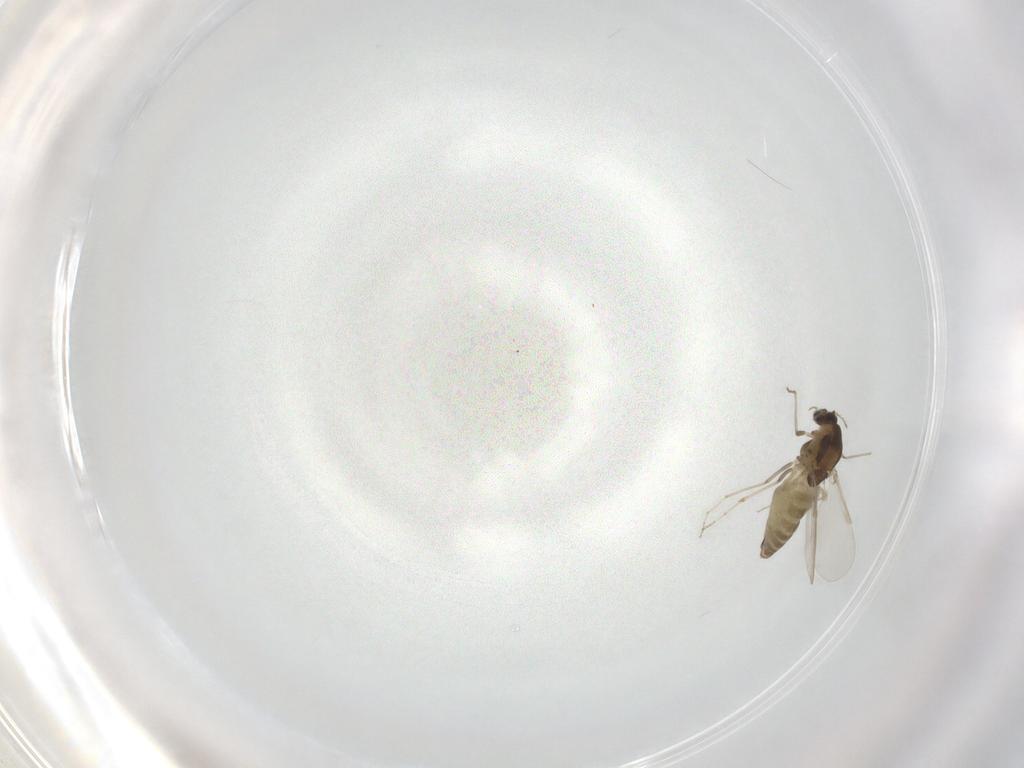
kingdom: Animalia
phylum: Arthropoda
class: Insecta
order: Diptera
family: Chironomidae
